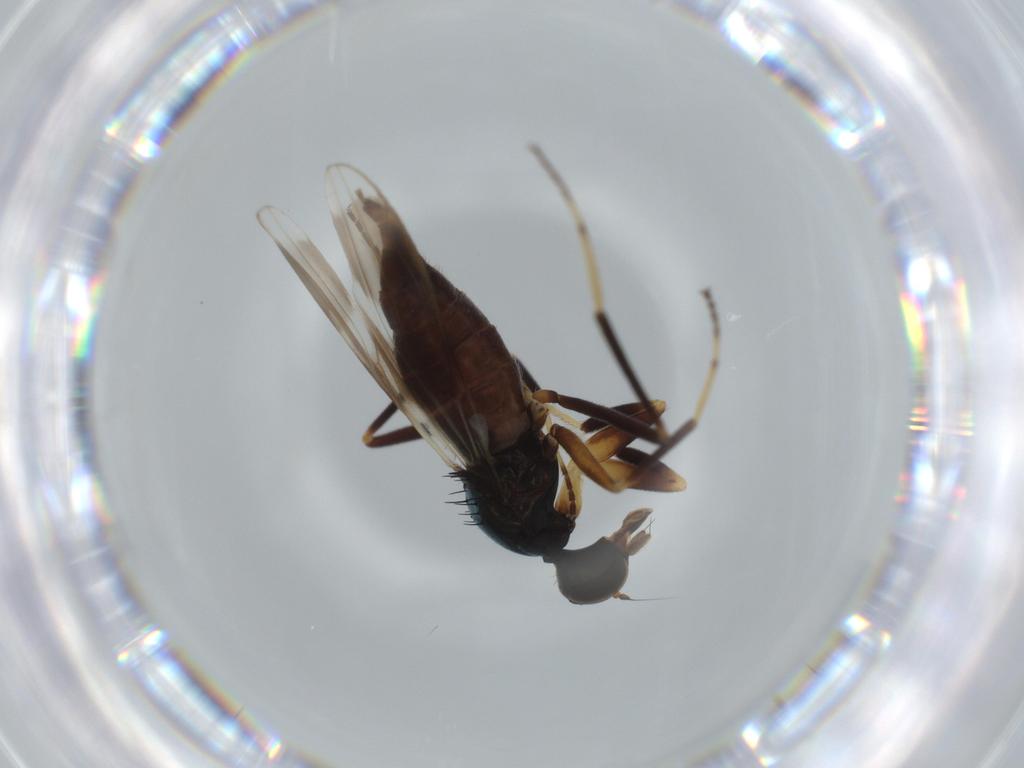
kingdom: Animalia
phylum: Arthropoda
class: Insecta
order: Diptera
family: Hybotidae
